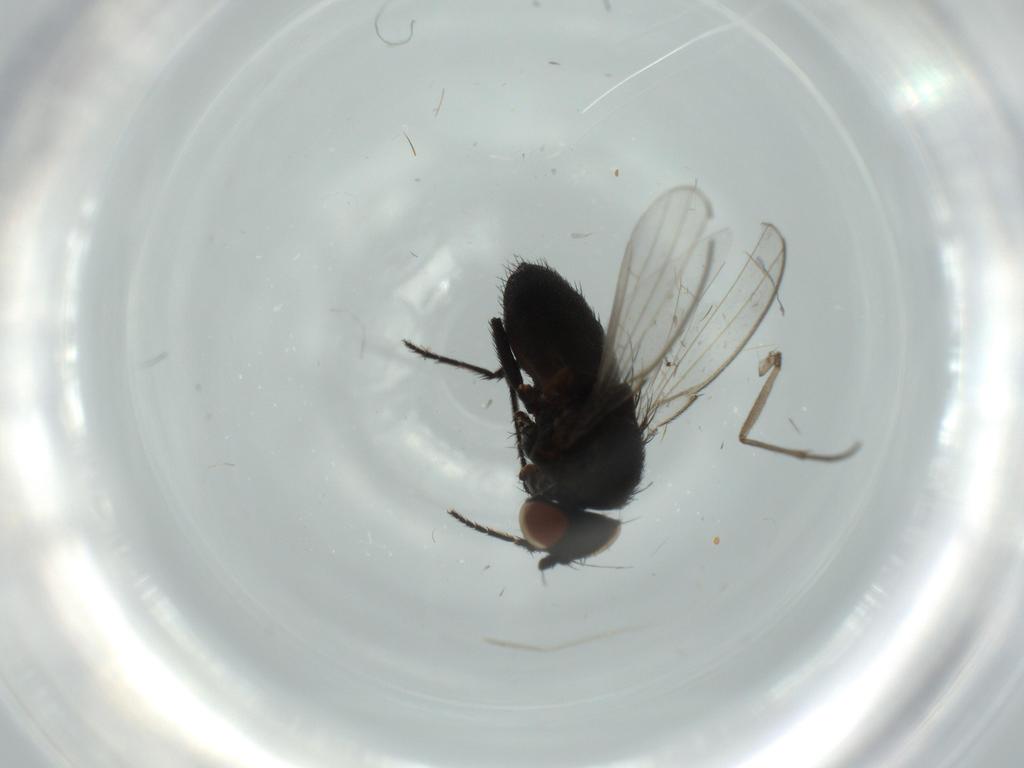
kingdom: Animalia
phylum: Arthropoda
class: Insecta
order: Diptera
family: Milichiidae
